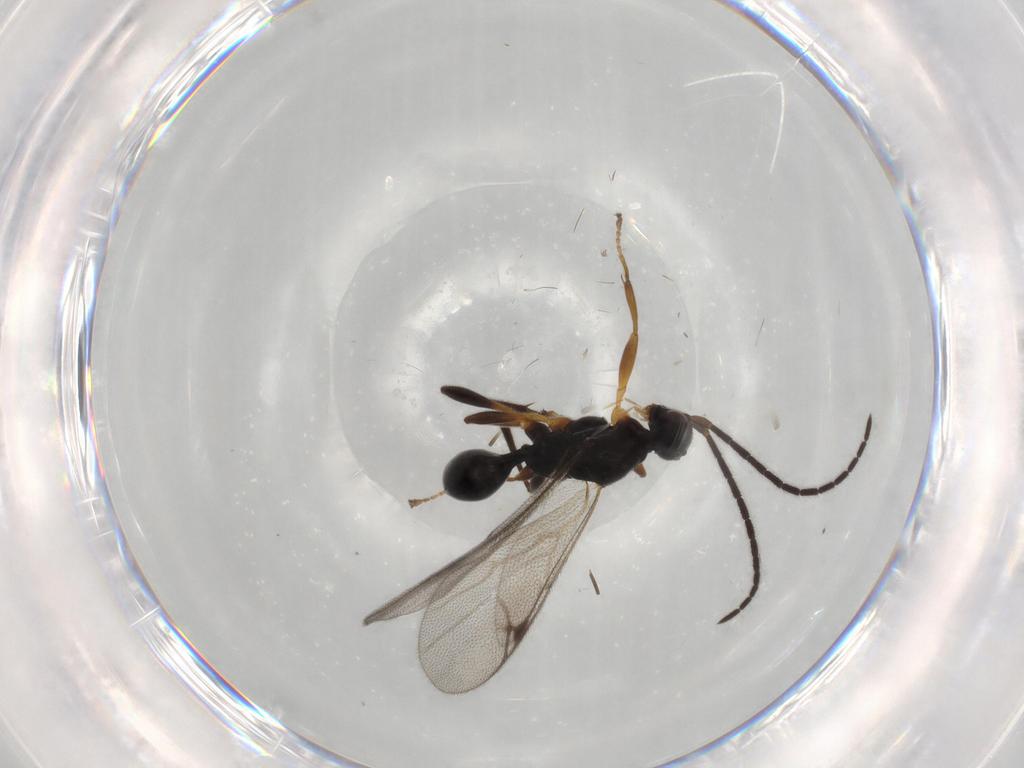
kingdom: Animalia
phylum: Arthropoda
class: Insecta
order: Hymenoptera
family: Proctotrupidae
